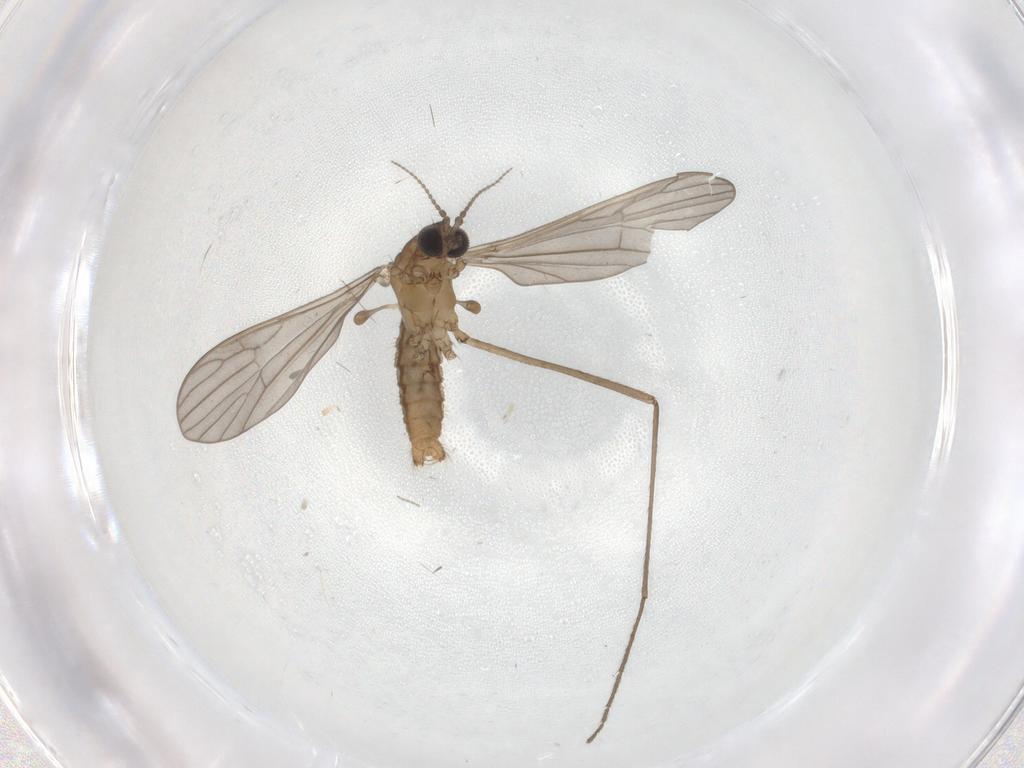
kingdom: Animalia
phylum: Arthropoda
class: Insecta
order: Diptera
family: Limoniidae
